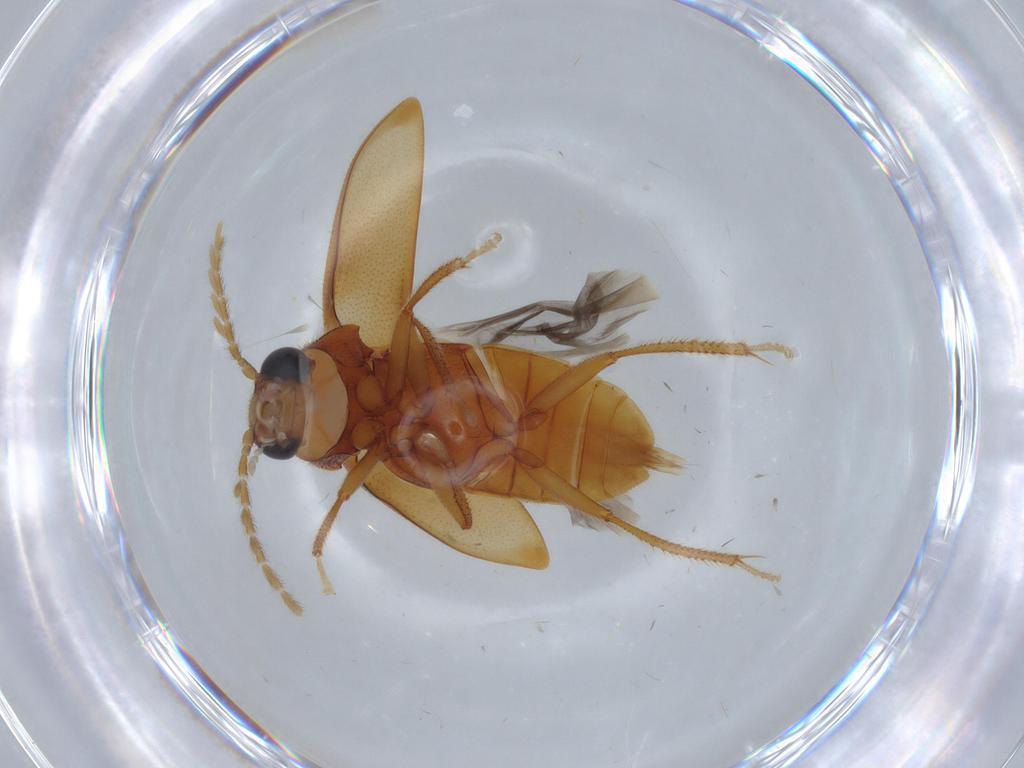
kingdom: Animalia
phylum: Arthropoda
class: Insecta
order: Coleoptera
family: Ptilodactylidae
